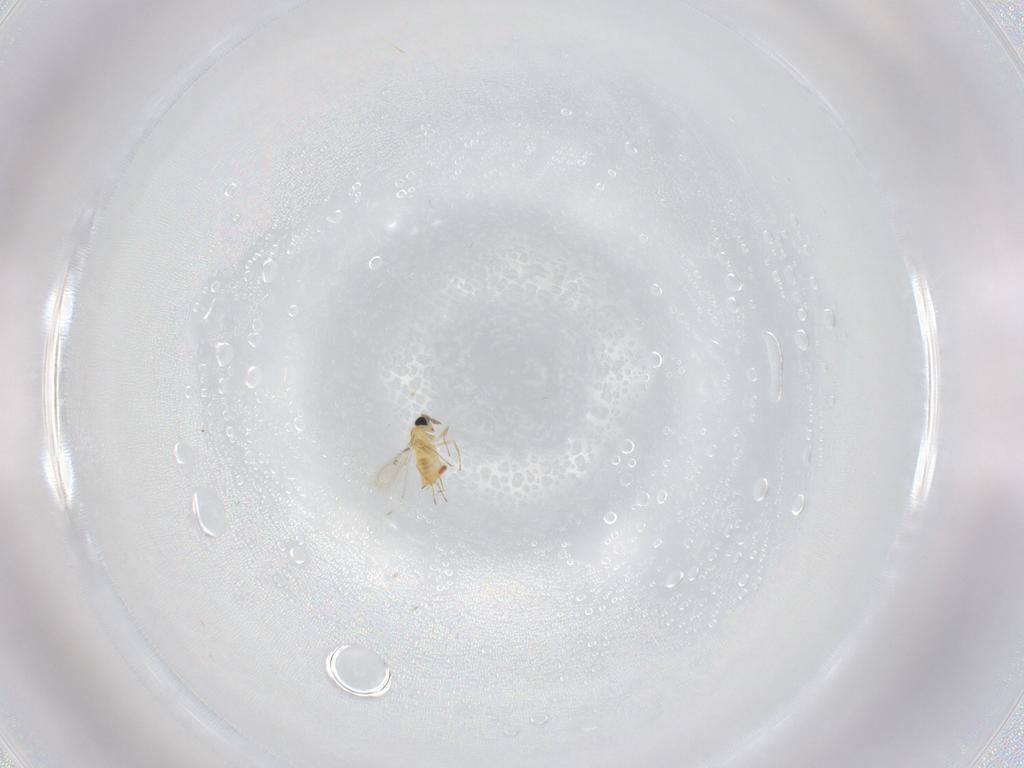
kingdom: Animalia
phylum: Arthropoda
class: Insecta
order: Hymenoptera
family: Trichogrammatidae
